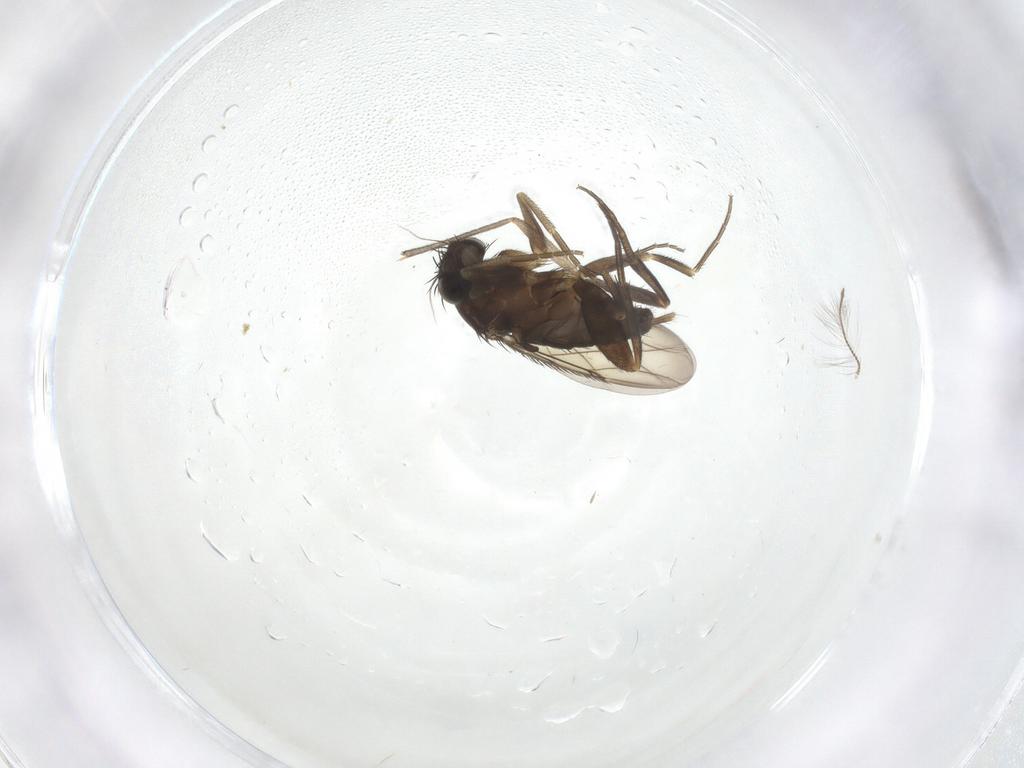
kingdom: Animalia
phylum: Arthropoda
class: Insecta
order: Diptera
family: Phoridae
